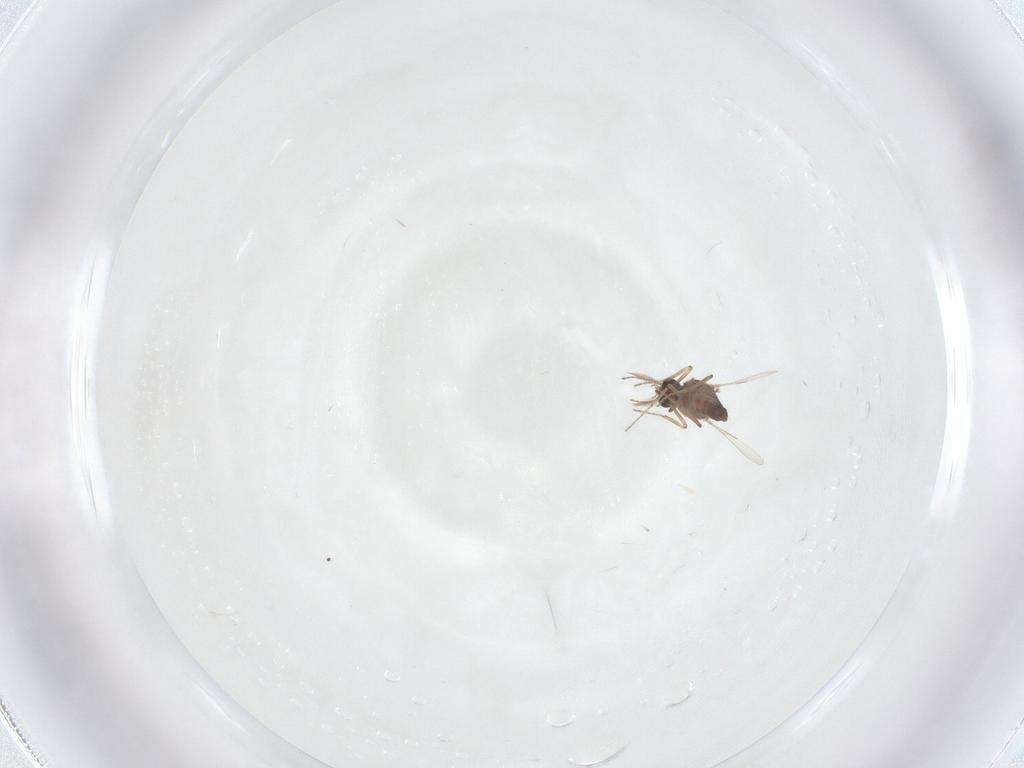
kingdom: Animalia
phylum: Arthropoda
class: Insecta
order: Diptera
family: Ceratopogonidae
